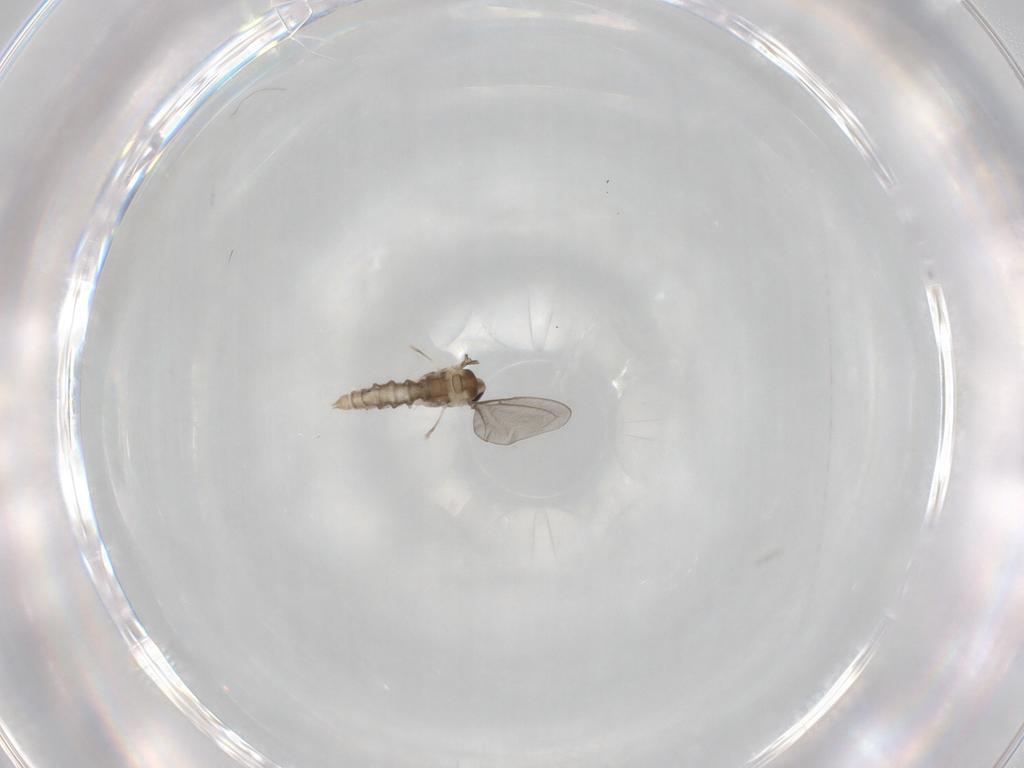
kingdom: Animalia
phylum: Arthropoda
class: Insecta
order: Diptera
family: Cecidomyiidae
